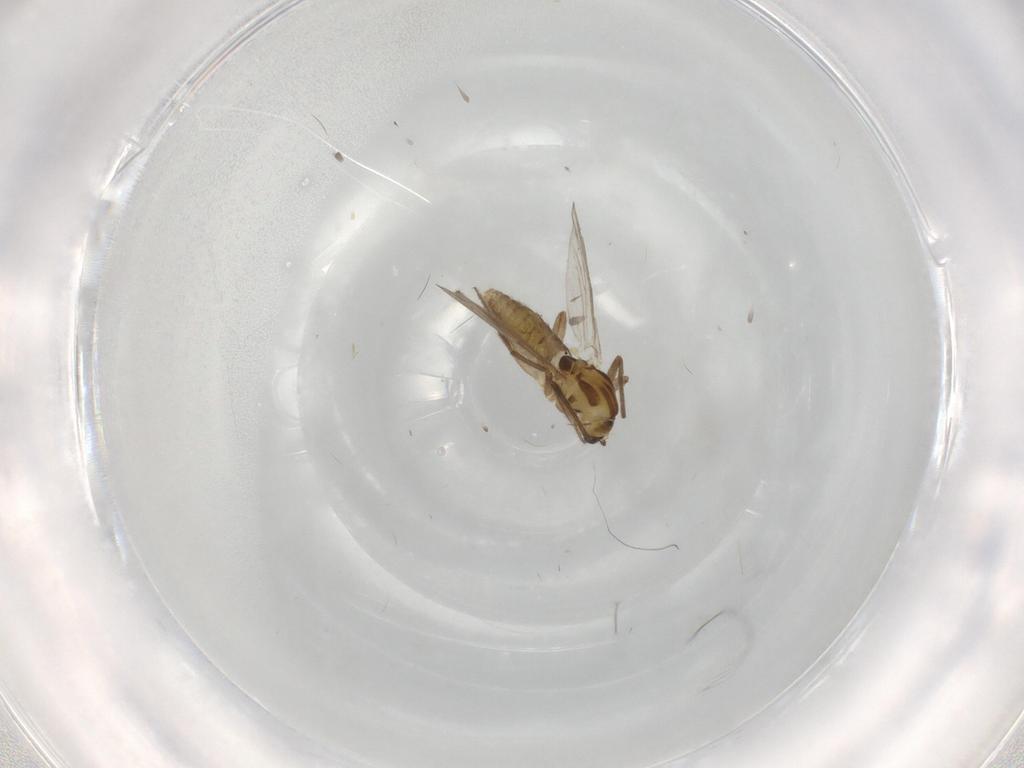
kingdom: Animalia
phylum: Arthropoda
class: Insecta
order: Diptera
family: Chironomidae
